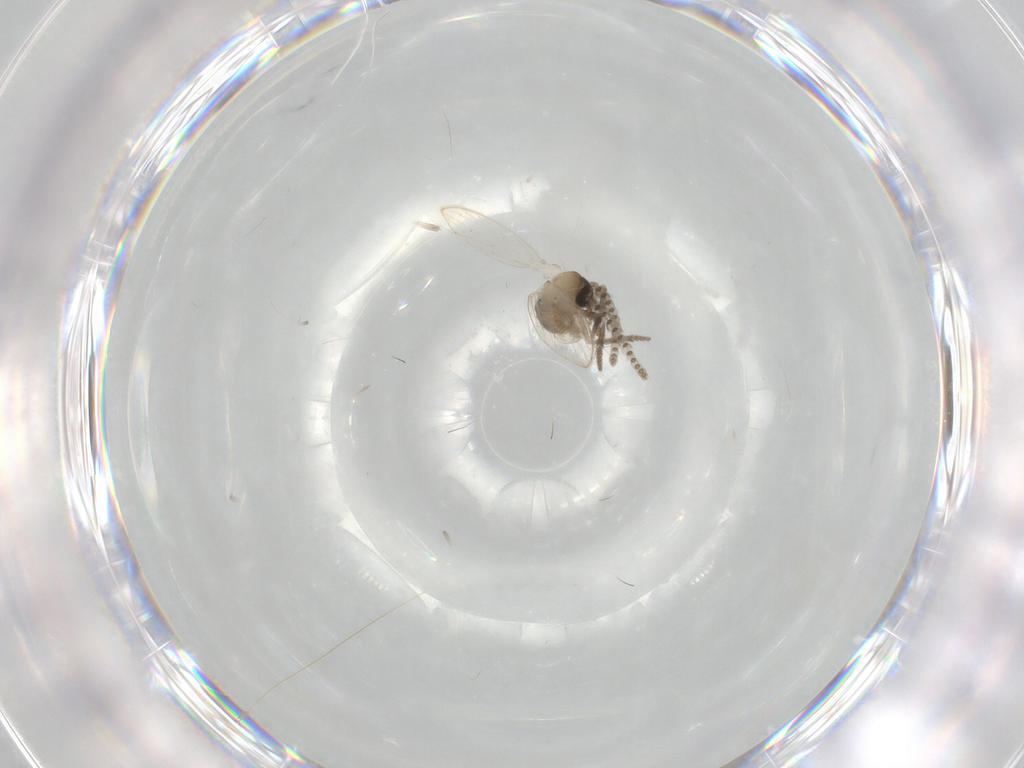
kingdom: Animalia
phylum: Arthropoda
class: Insecta
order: Diptera
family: Psychodidae
